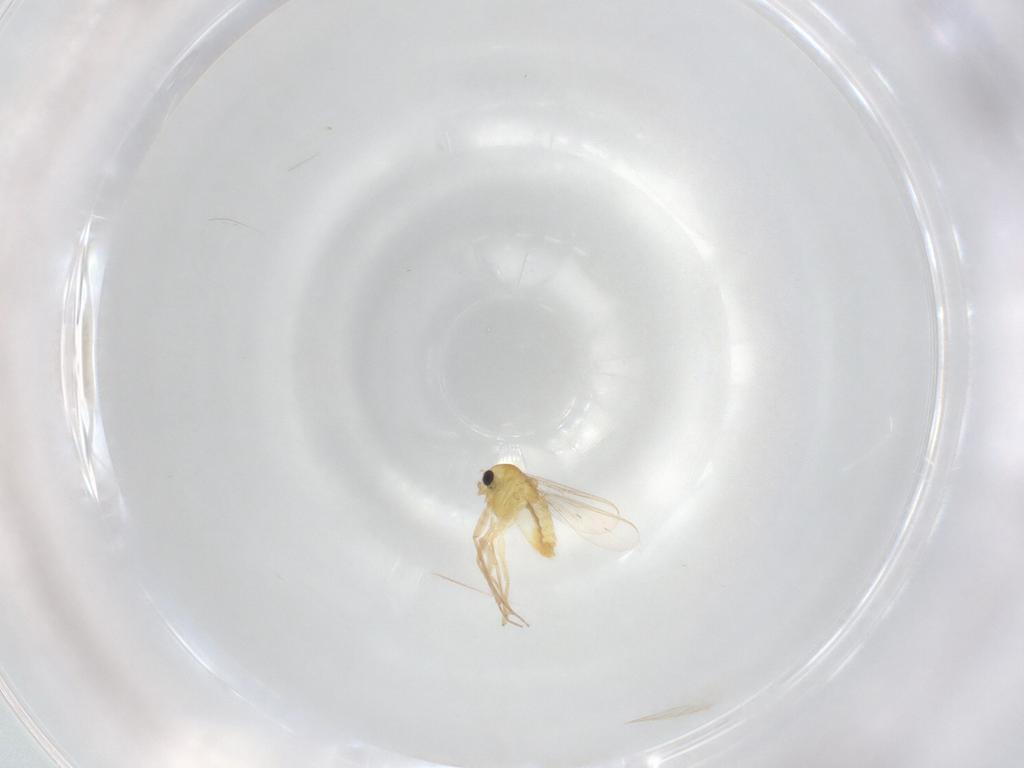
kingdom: Animalia
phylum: Arthropoda
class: Insecta
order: Diptera
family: Chironomidae
